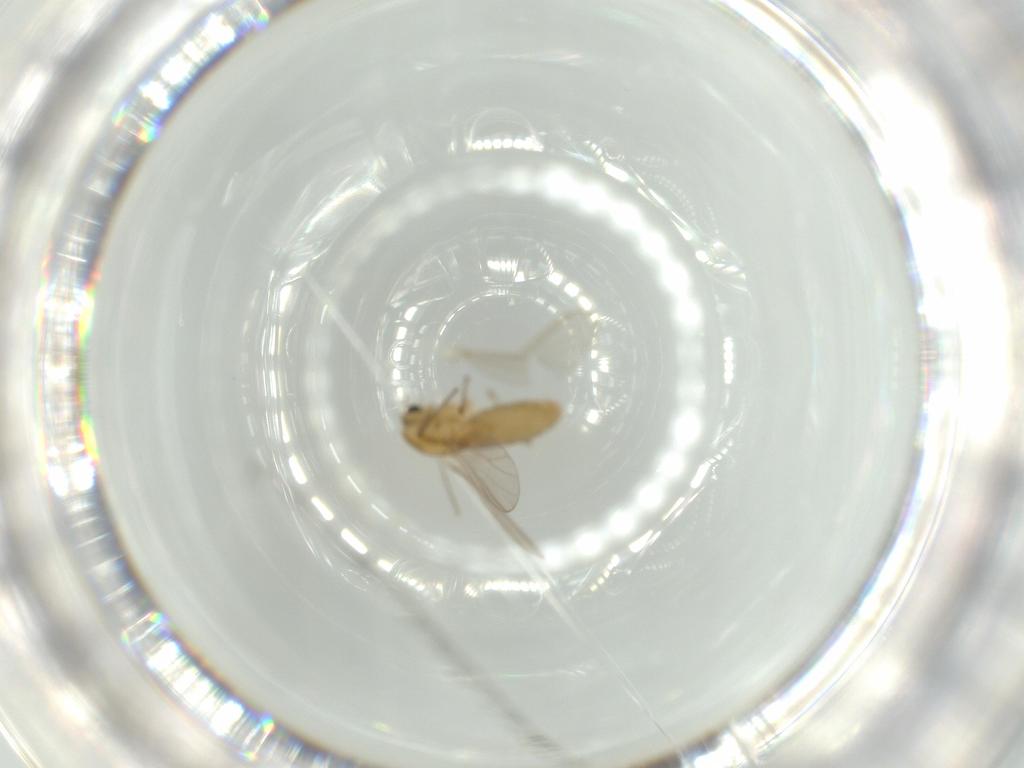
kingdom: Animalia
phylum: Arthropoda
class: Insecta
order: Diptera
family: Chironomidae
